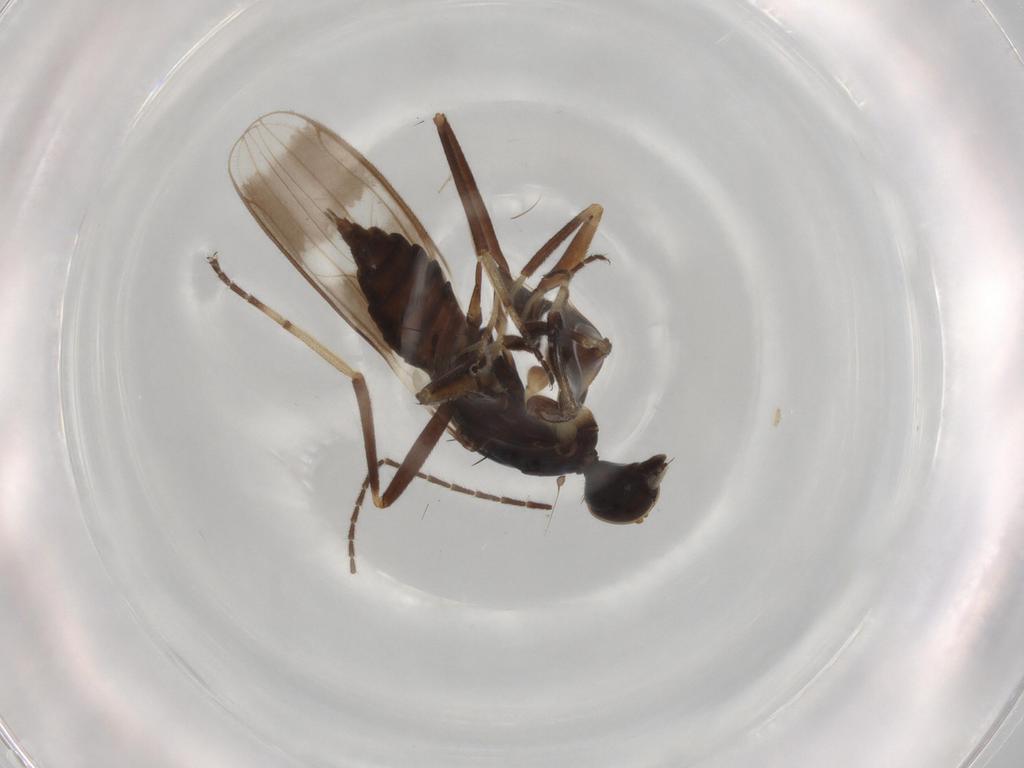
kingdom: Animalia
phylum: Arthropoda
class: Insecta
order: Diptera
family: Hybotidae
